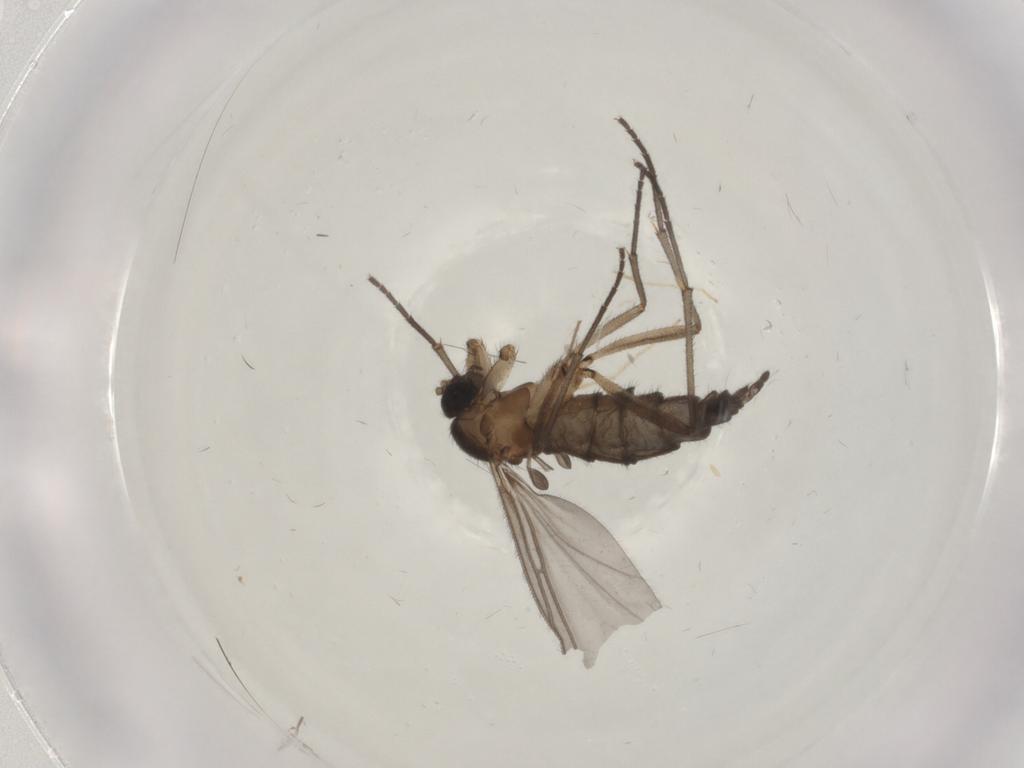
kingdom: Animalia
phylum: Arthropoda
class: Insecta
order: Diptera
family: Chironomidae
